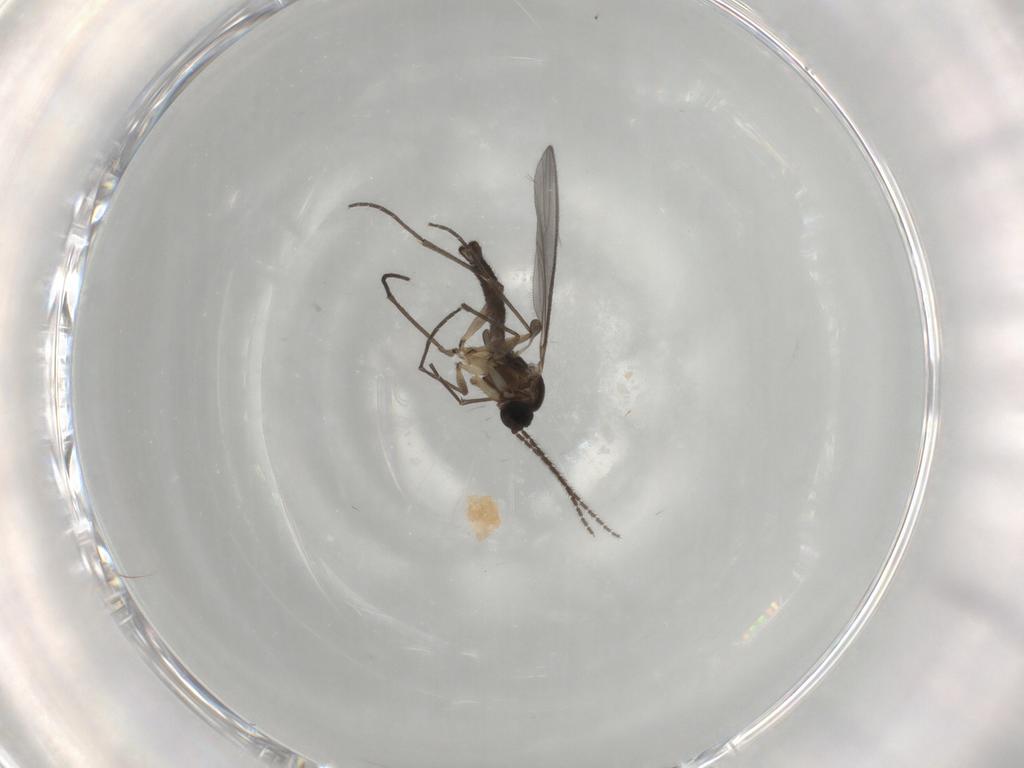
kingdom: Animalia
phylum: Arthropoda
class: Insecta
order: Diptera
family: Sciaridae
